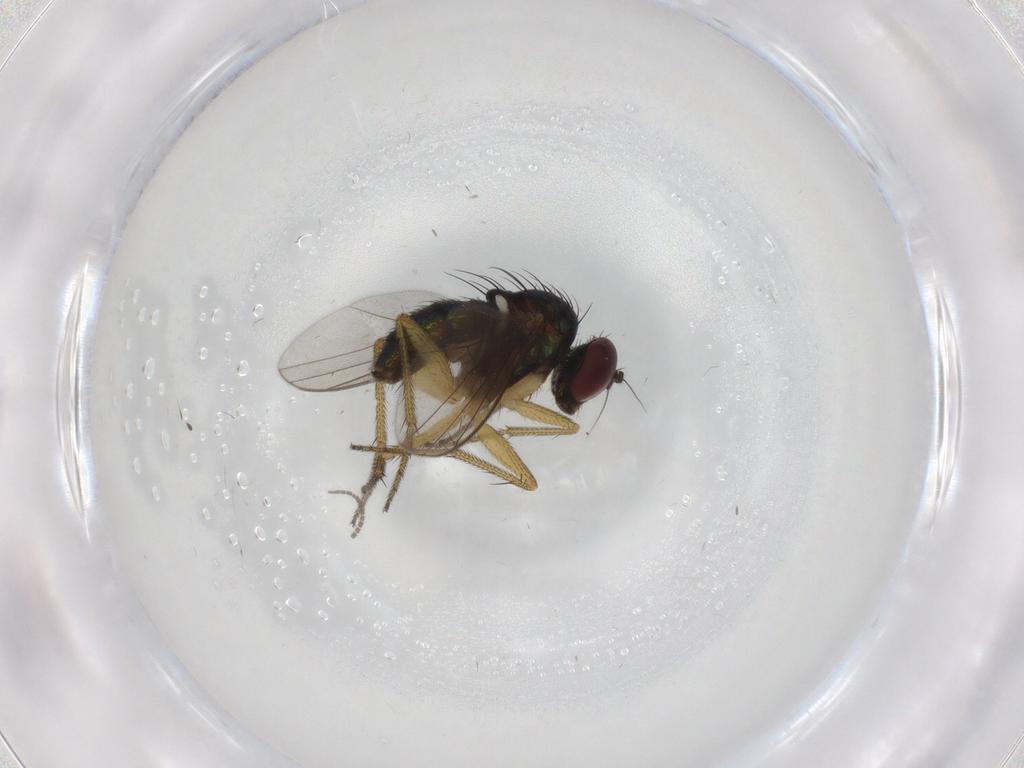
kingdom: Animalia
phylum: Arthropoda
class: Insecta
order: Diptera
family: Sciaridae
